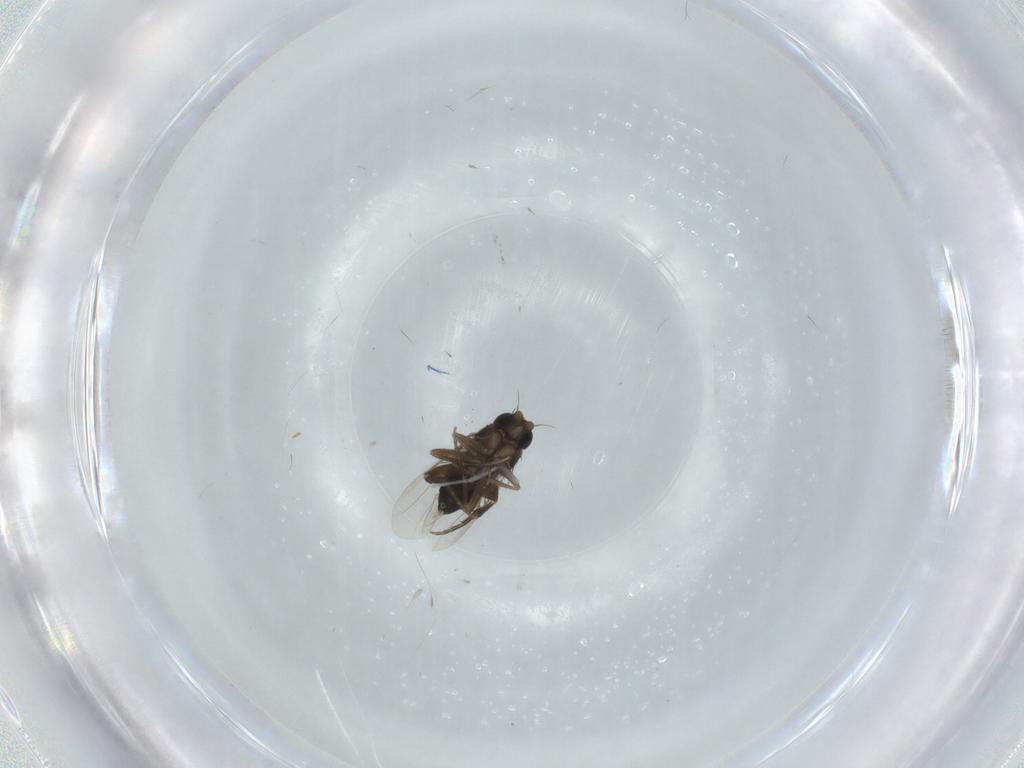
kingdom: Animalia
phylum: Arthropoda
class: Insecta
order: Diptera
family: Phoridae
